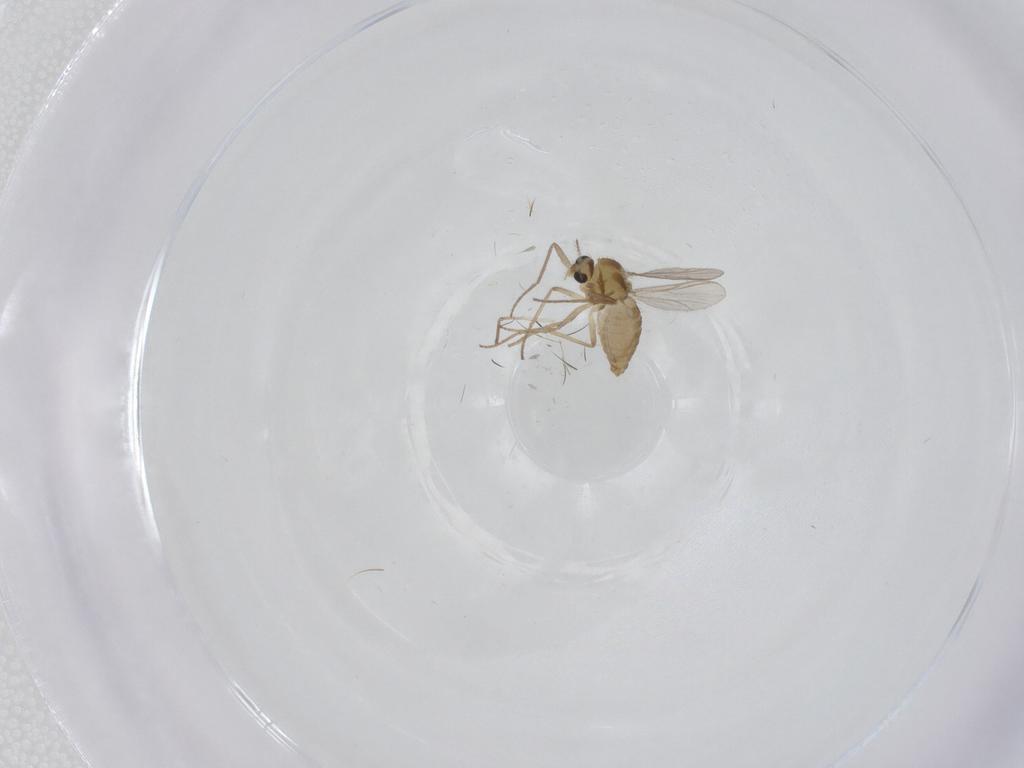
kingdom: Animalia
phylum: Arthropoda
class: Insecta
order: Diptera
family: Chironomidae
